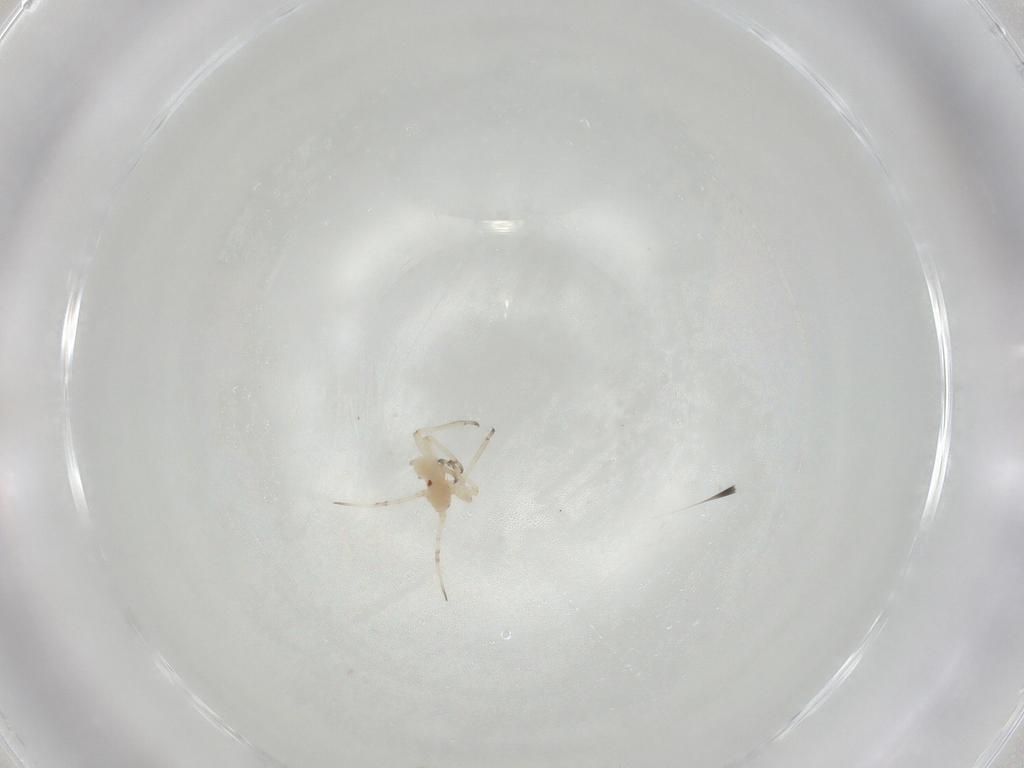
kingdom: Animalia
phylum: Arthropoda
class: Insecta
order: Hemiptera
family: Aphididae
